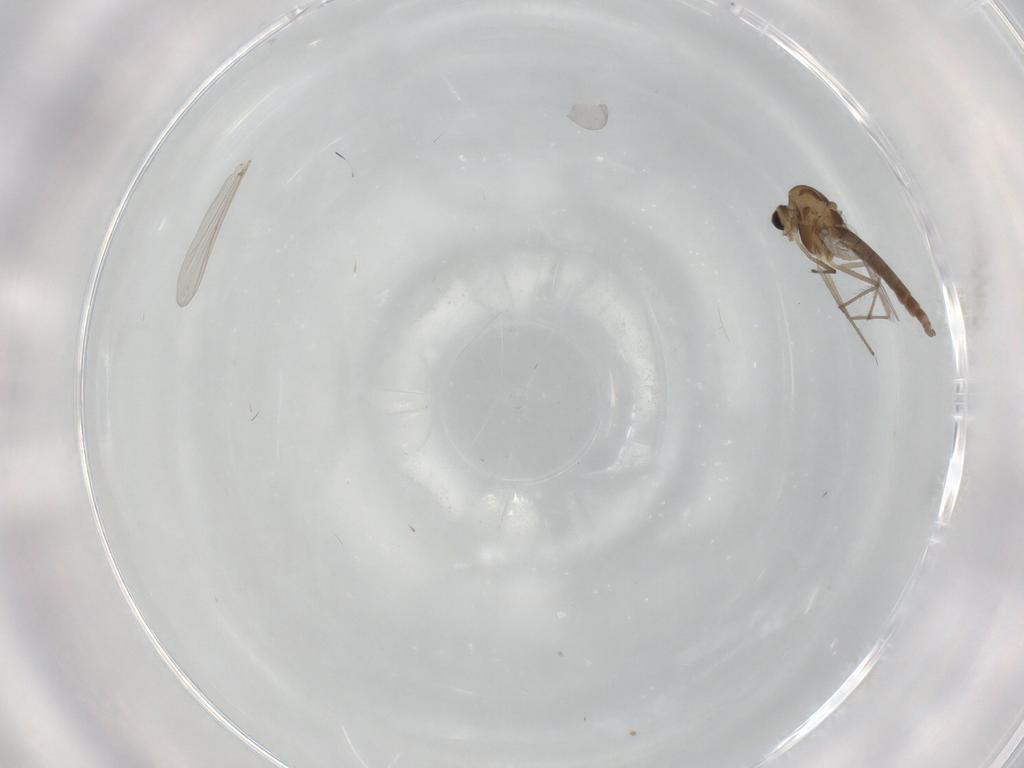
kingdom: Animalia
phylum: Arthropoda
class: Insecta
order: Diptera
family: Chironomidae
